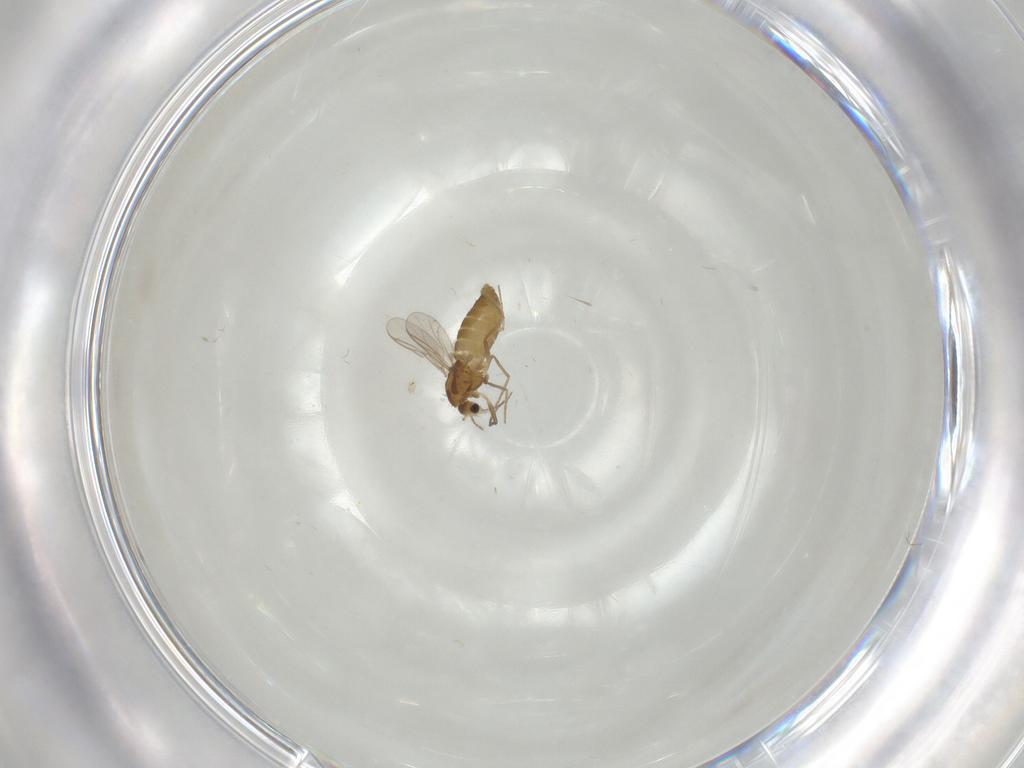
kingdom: Animalia
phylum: Arthropoda
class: Insecta
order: Diptera
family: Chironomidae
